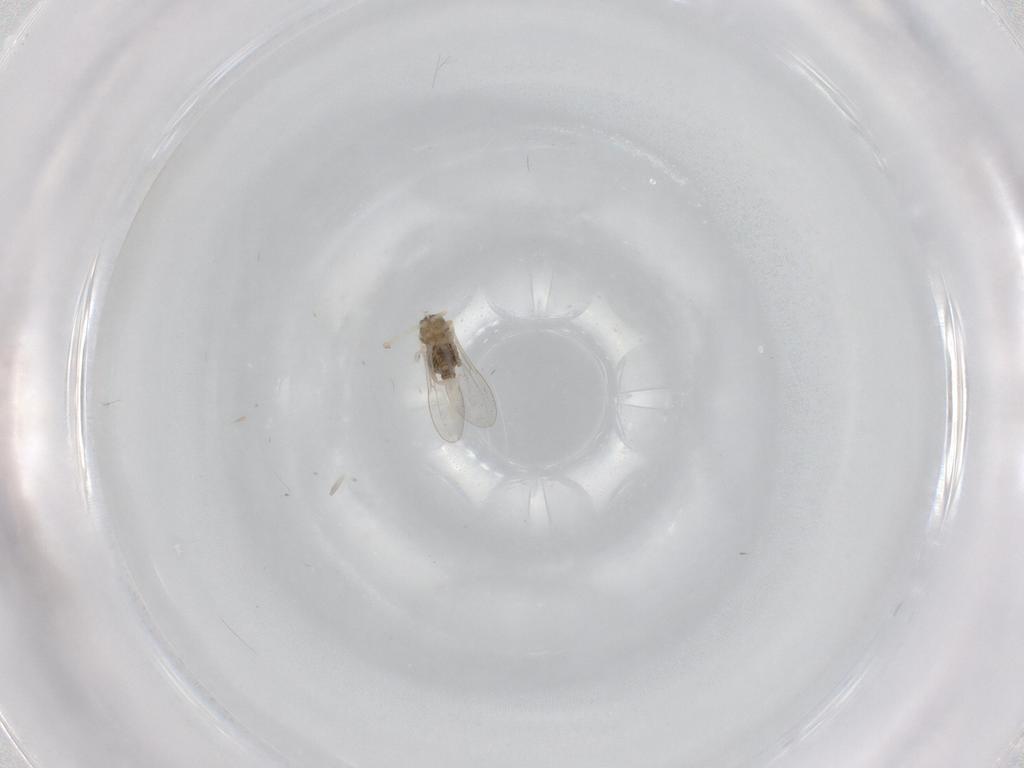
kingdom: Animalia
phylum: Arthropoda
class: Insecta
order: Diptera
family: Cecidomyiidae
